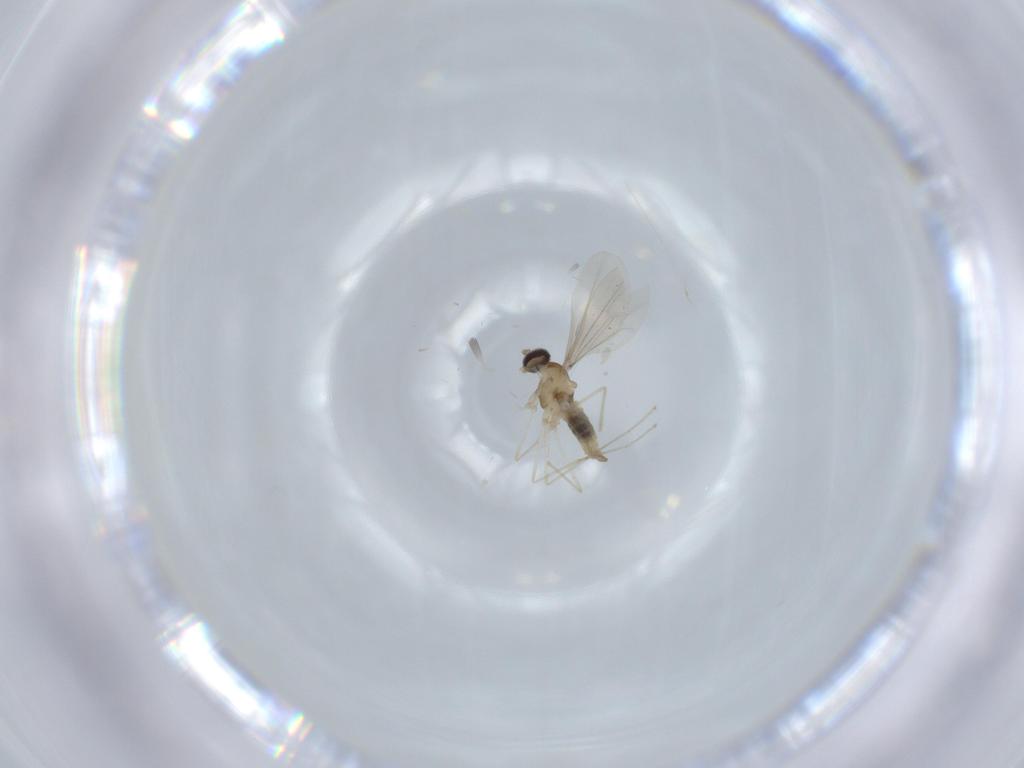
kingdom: Animalia
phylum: Arthropoda
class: Insecta
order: Diptera
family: Cecidomyiidae
